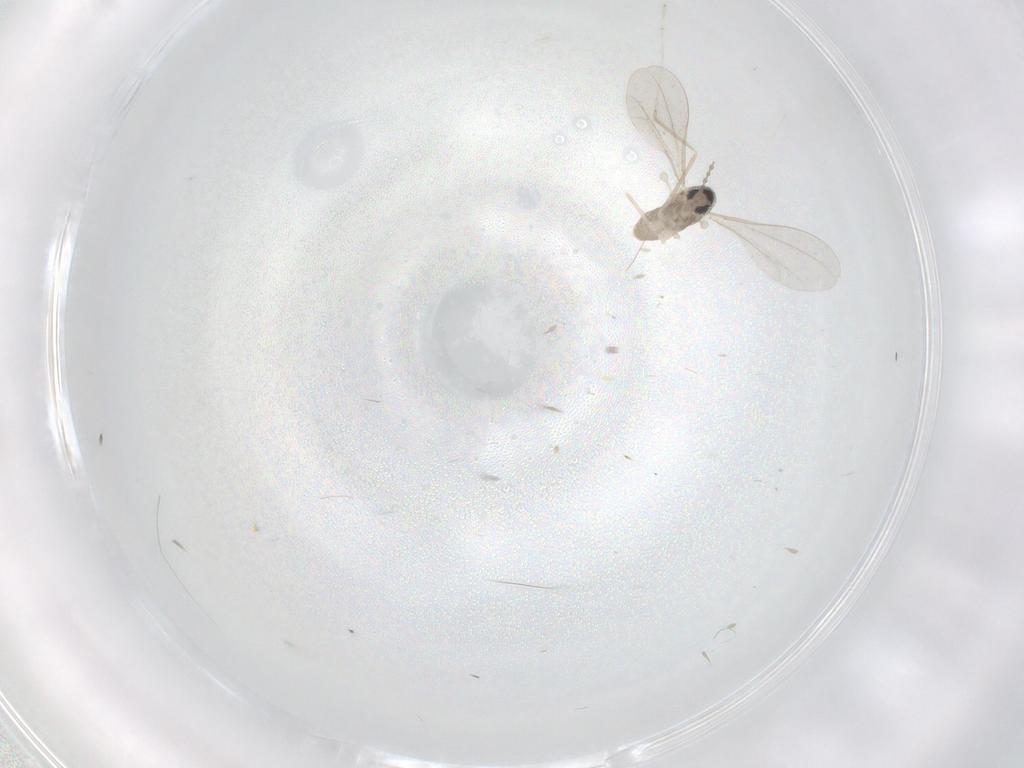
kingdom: Animalia
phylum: Arthropoda
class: Insecta
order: Diptera
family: Cecidomyiidae
